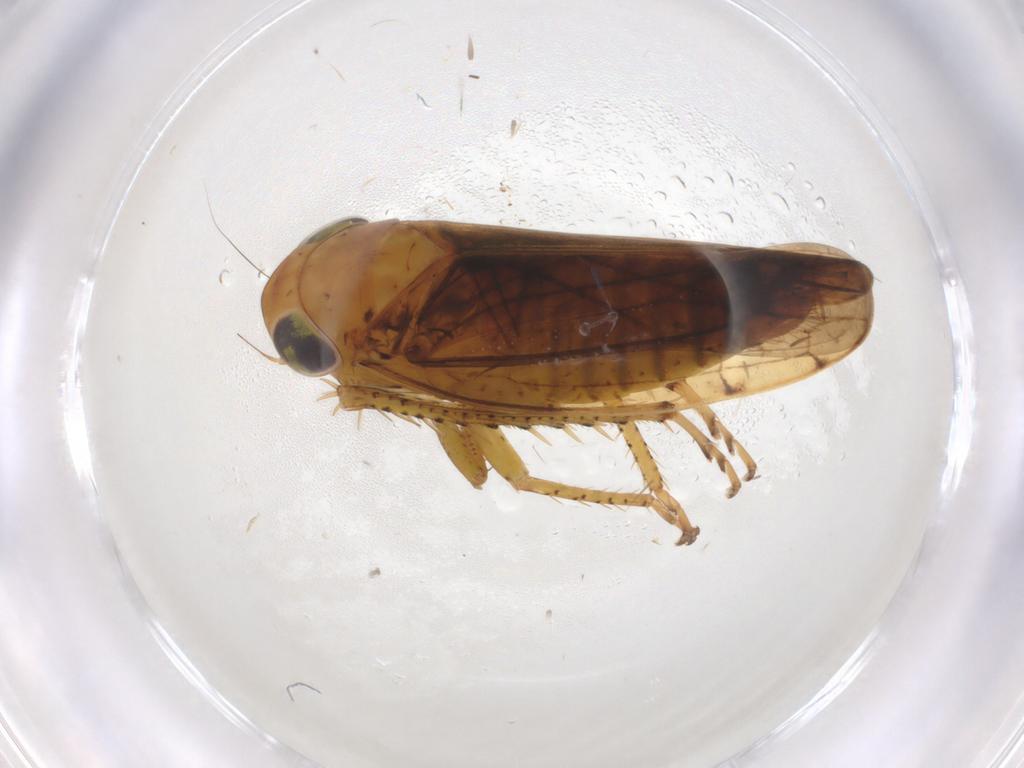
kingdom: Animalia
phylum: Arthropoda
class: Insecta
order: Hemiptera
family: Cicadellidae
